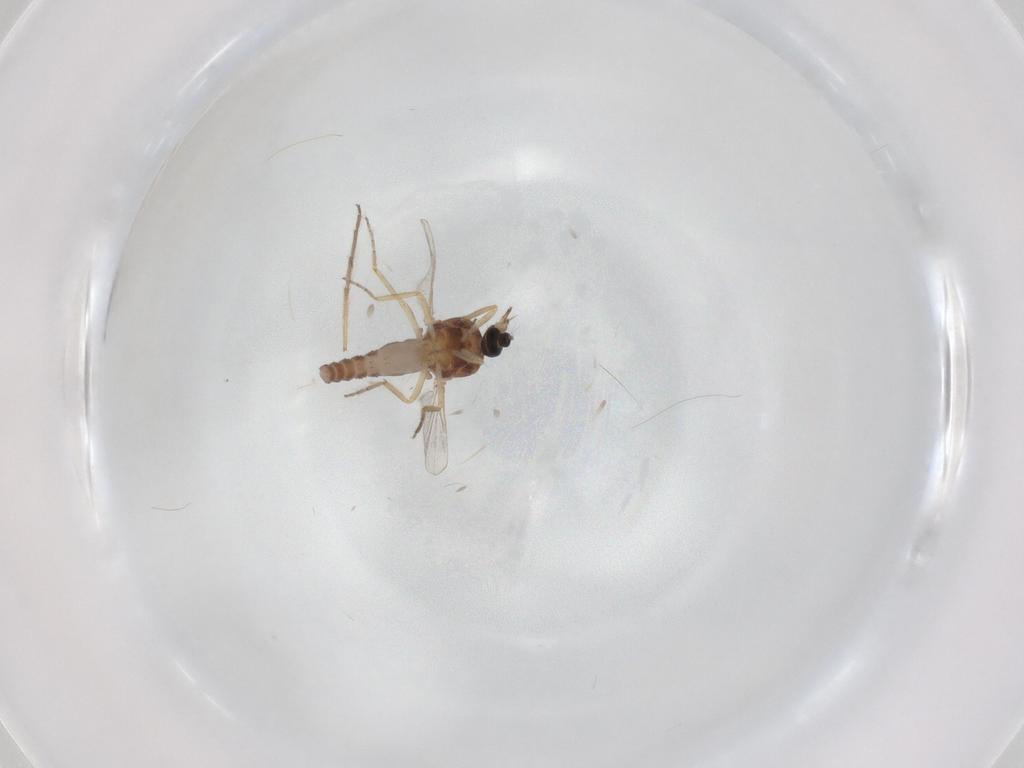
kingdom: Animalia
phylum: Arthropoda
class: Insecta
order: Diptera
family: Ceratopogonidae
